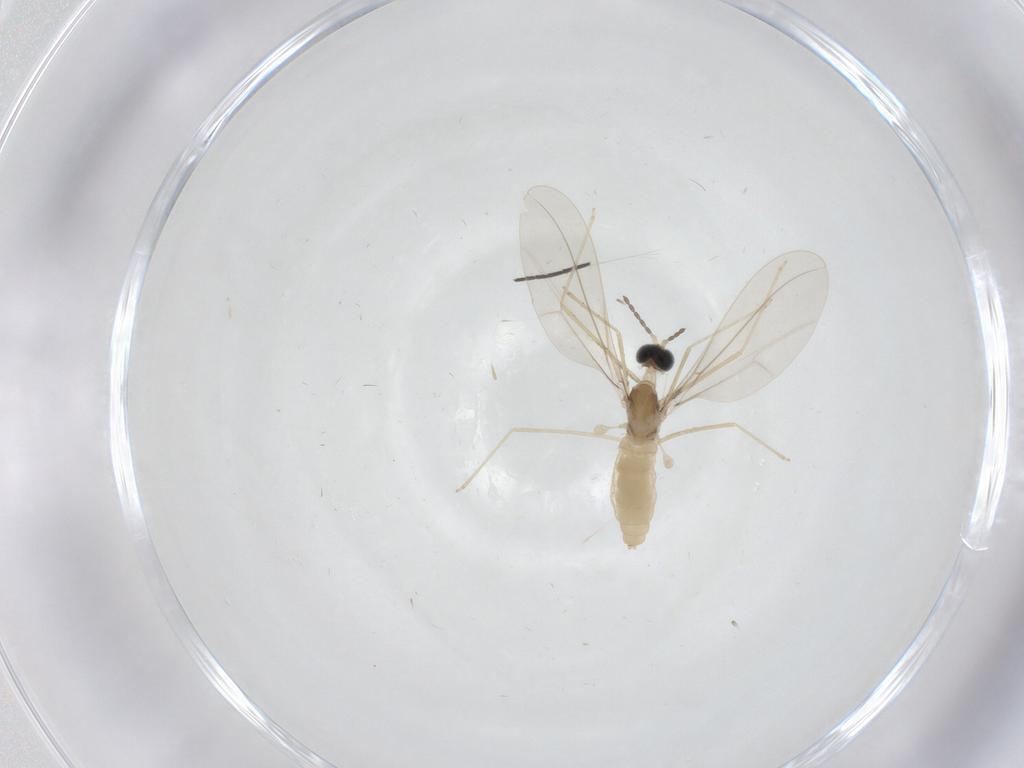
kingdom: Animalia
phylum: Arthropoda
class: Insecta
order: Diptera
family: Cecidomyiidae
